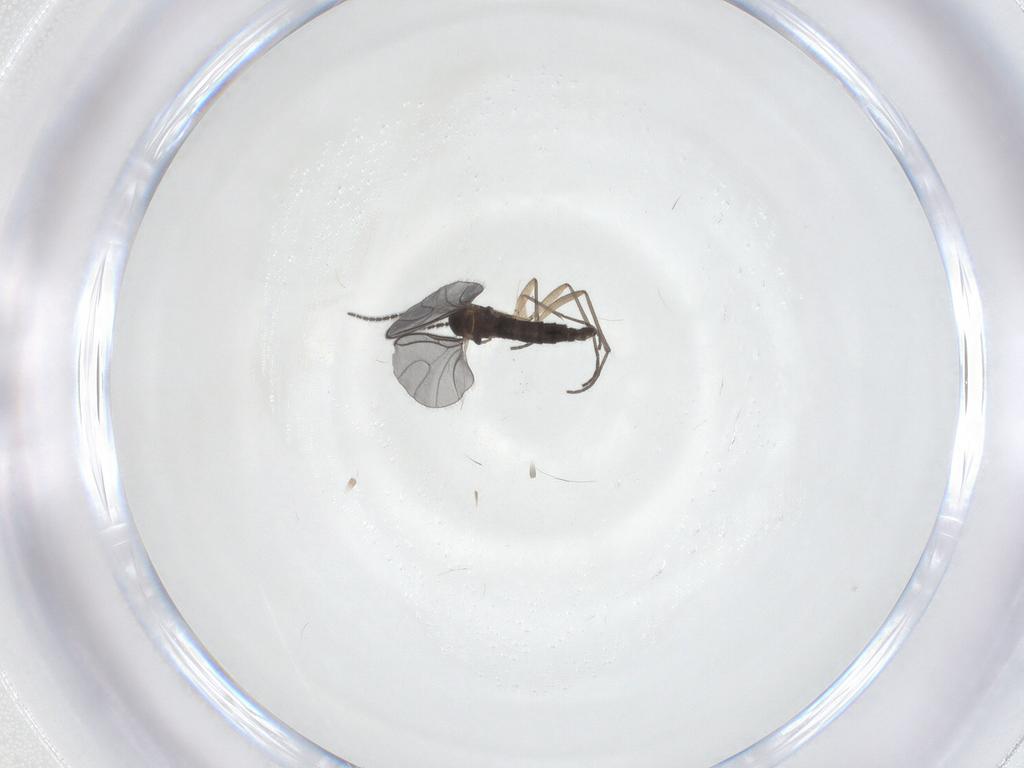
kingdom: Animalia
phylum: Arthropoda
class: Insecta
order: Diptera
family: Sciaridae
